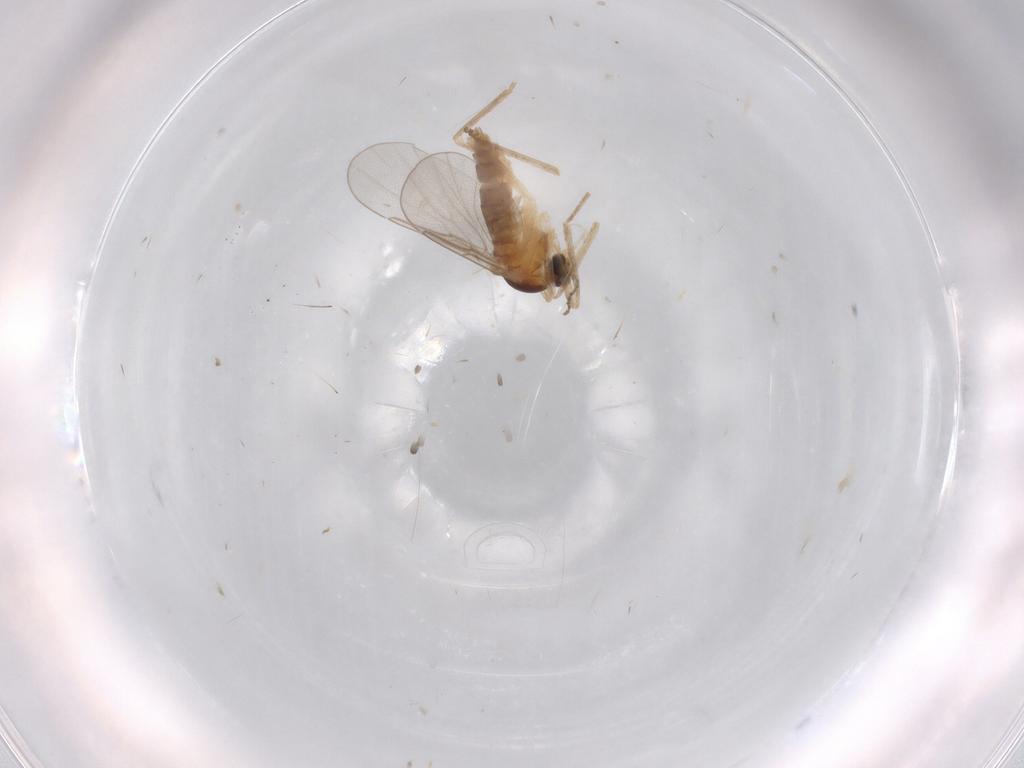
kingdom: Animalia
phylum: Arthropoda
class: Insecta
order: Diptera
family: Cecidomyiidae
